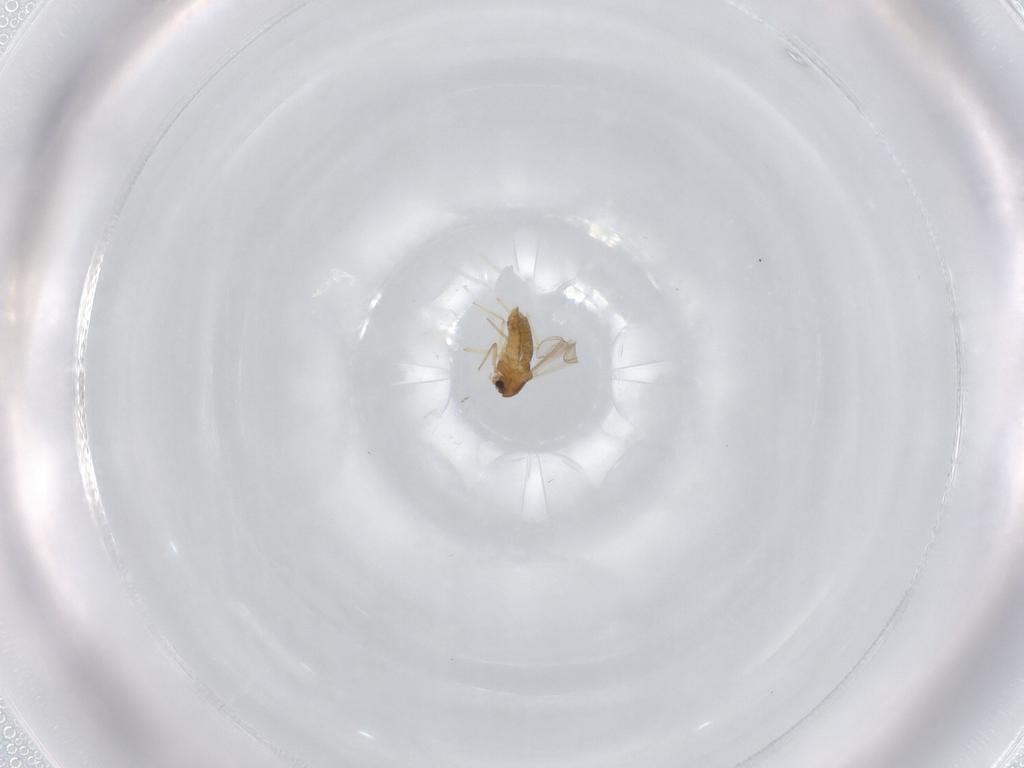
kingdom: Animalia
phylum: Arthropoda
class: Insecta
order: Diptera
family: Chironomidae
